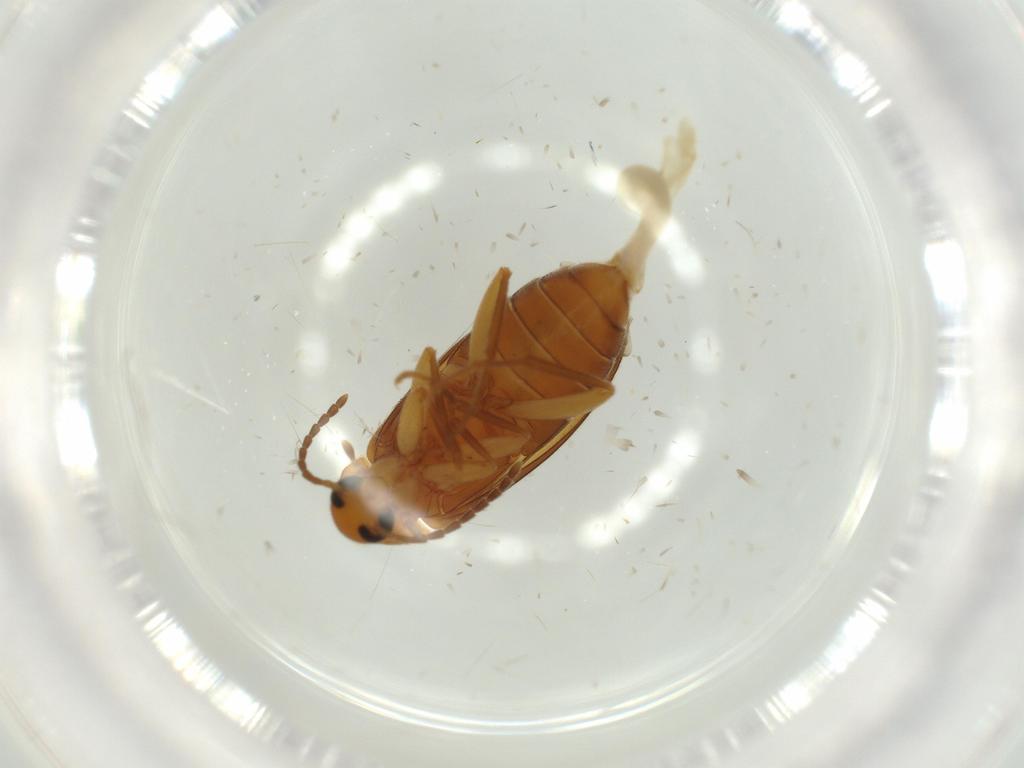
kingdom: Animalia
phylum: Arthropoda
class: Insecta
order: Coleoptera
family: Scraptiidae
